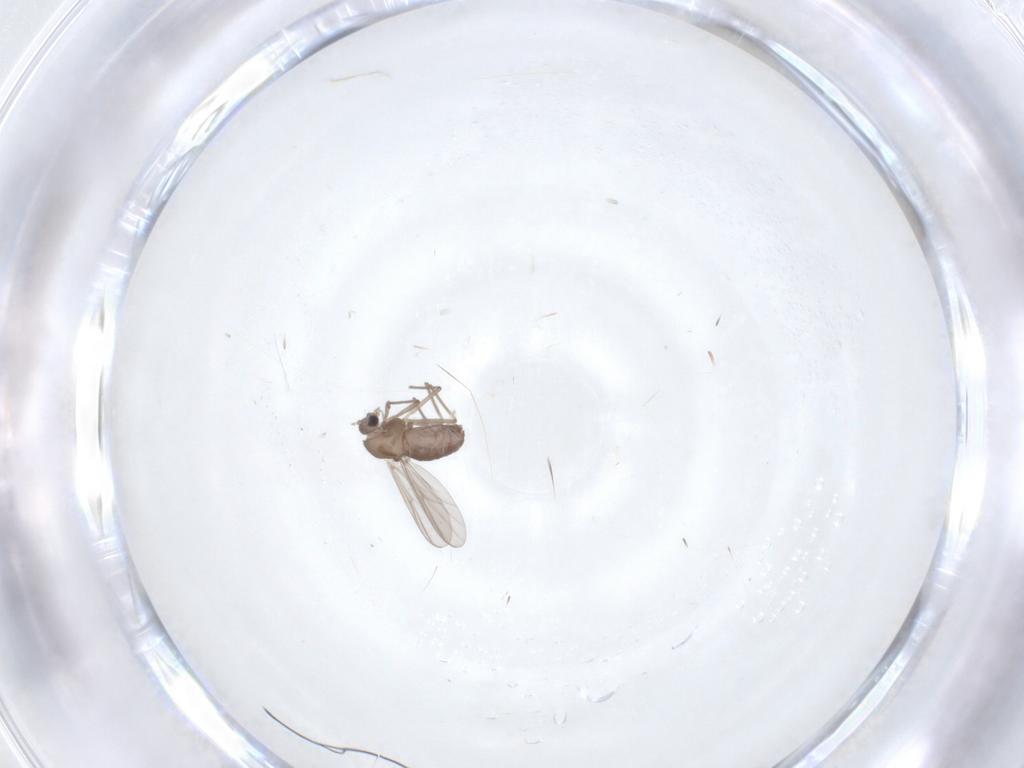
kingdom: Animalia
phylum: Arthropoda
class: Insecta
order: Diptera
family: Chironomidae
